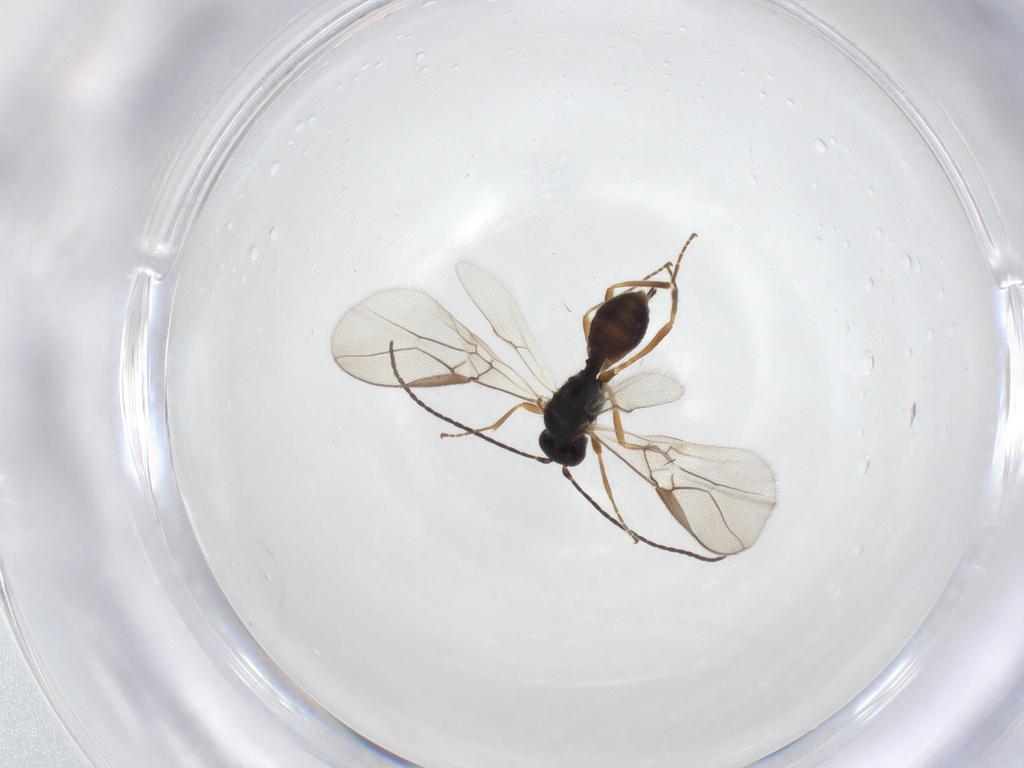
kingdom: Animalia
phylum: Arthropoda
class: Insecta
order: Hymenoptera
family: Braconidae
